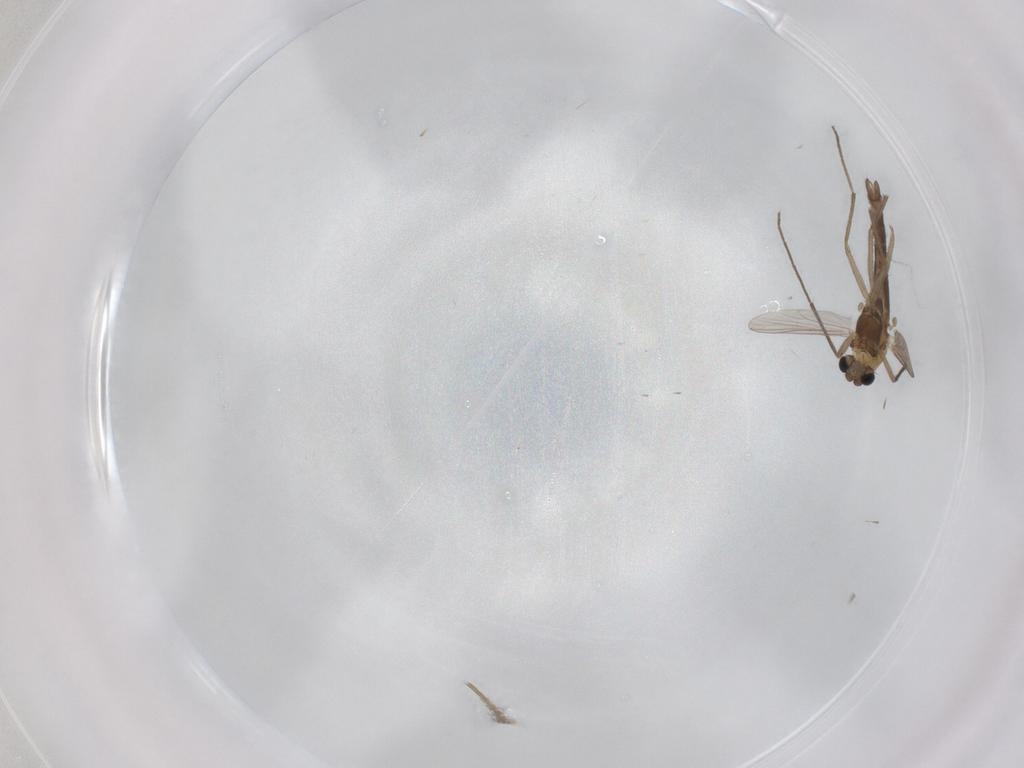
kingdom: Animalia
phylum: Arthropoda
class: Insecta
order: Diptera
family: Chironomidae
